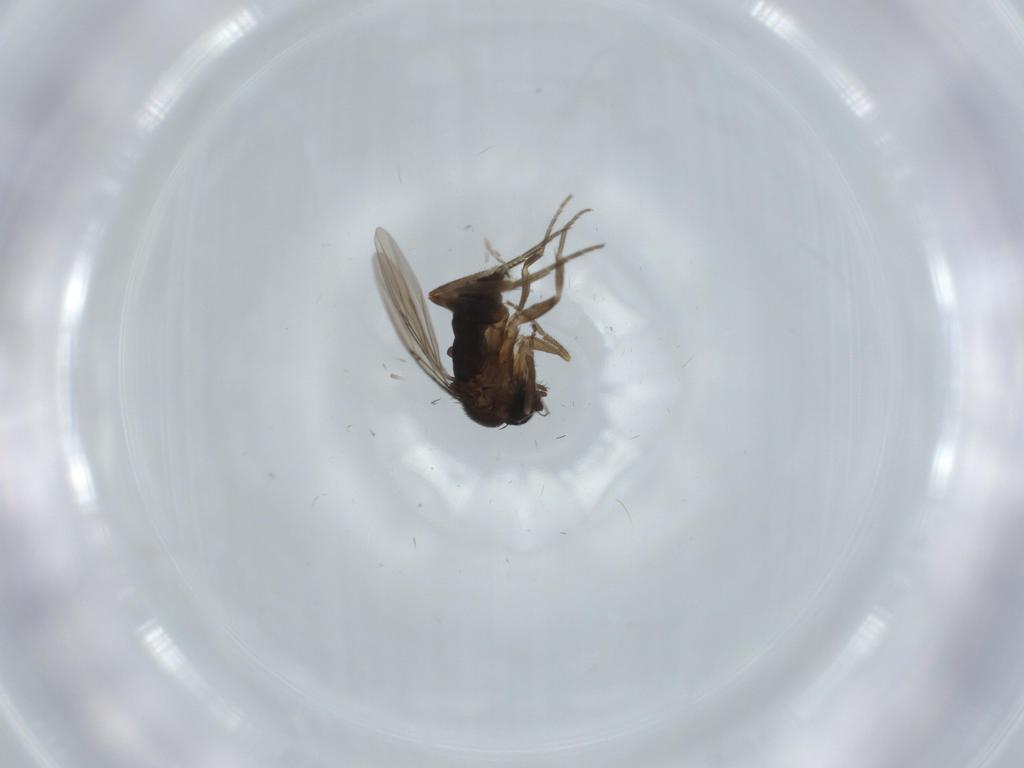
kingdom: Animalia
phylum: Arthropoda
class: Insecta
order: Diptera
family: Phoridae
